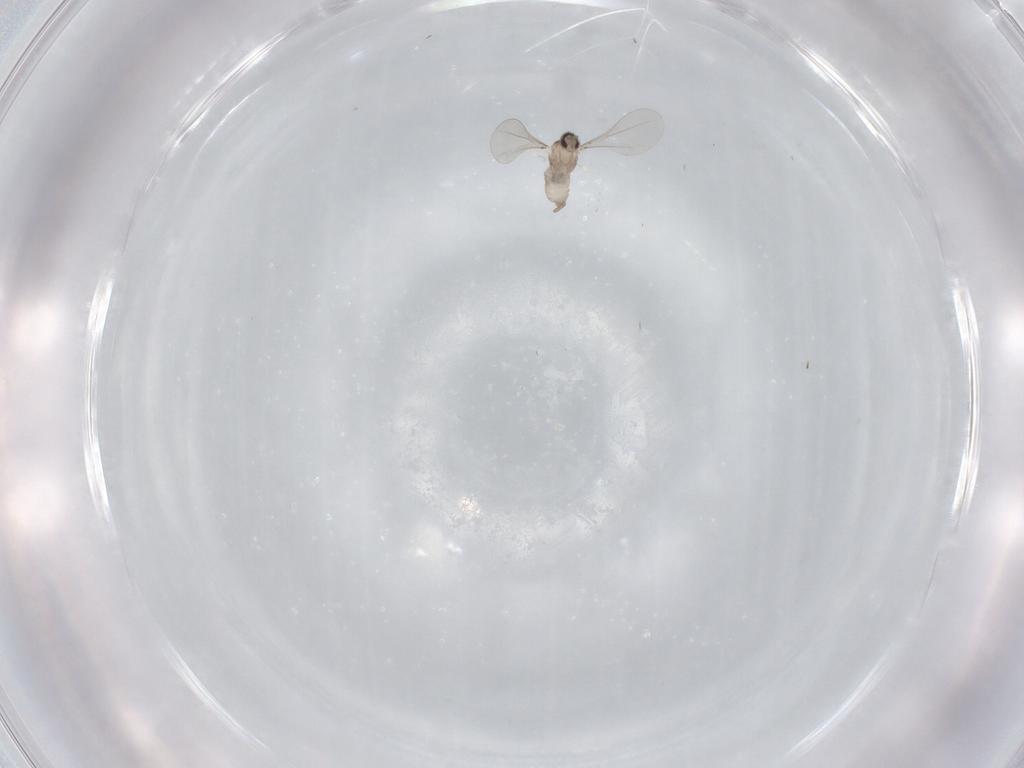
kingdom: Animalia
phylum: Arthropoda
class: Insecta
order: Diptera
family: Cecidomyiidae
